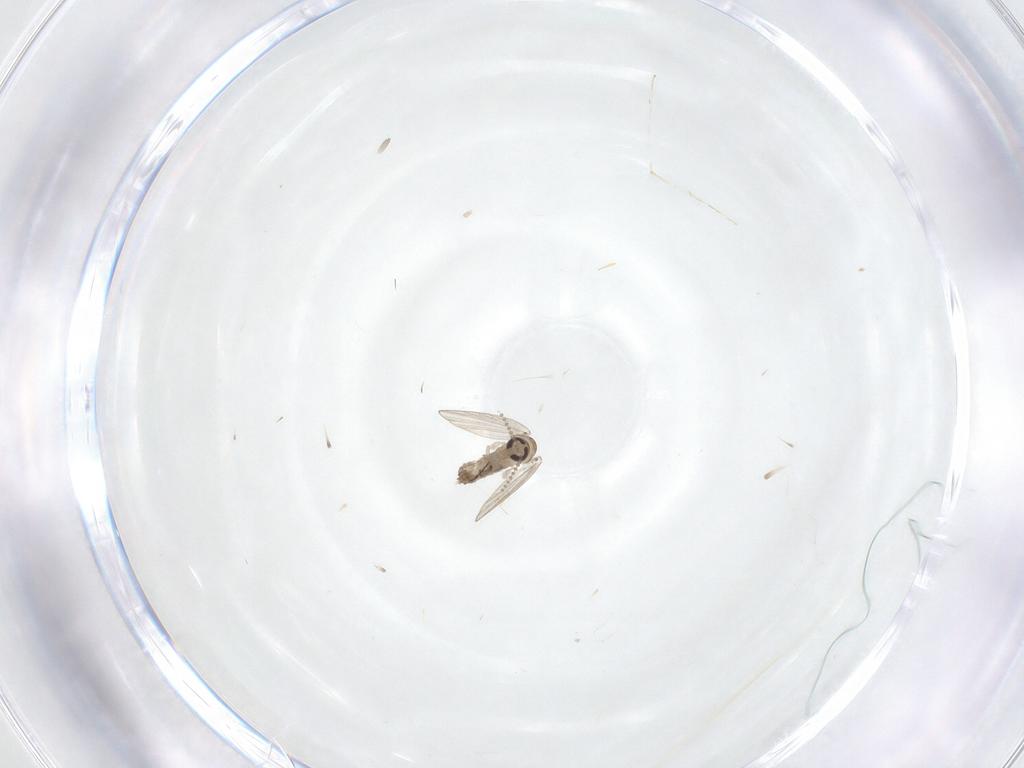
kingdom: Animalia
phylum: Arthropoda
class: Insecta
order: Diptera
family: Psychodidae
